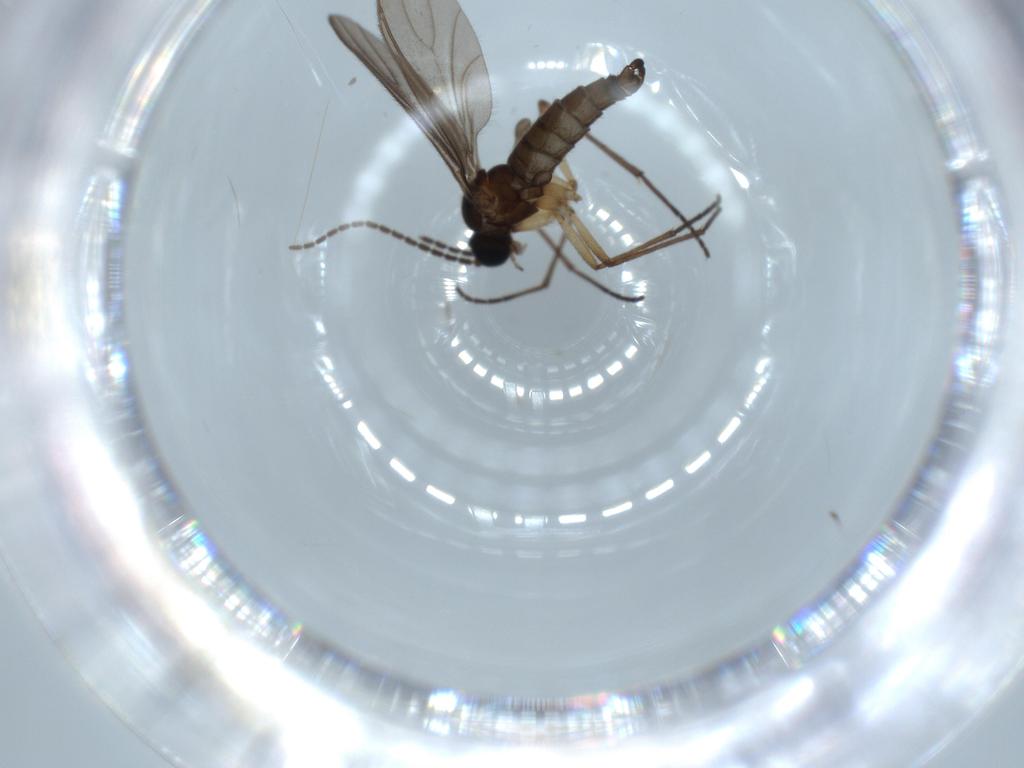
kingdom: Animalia
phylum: Arthropoda
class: Insecta
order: Diptera
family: Sciaridae
